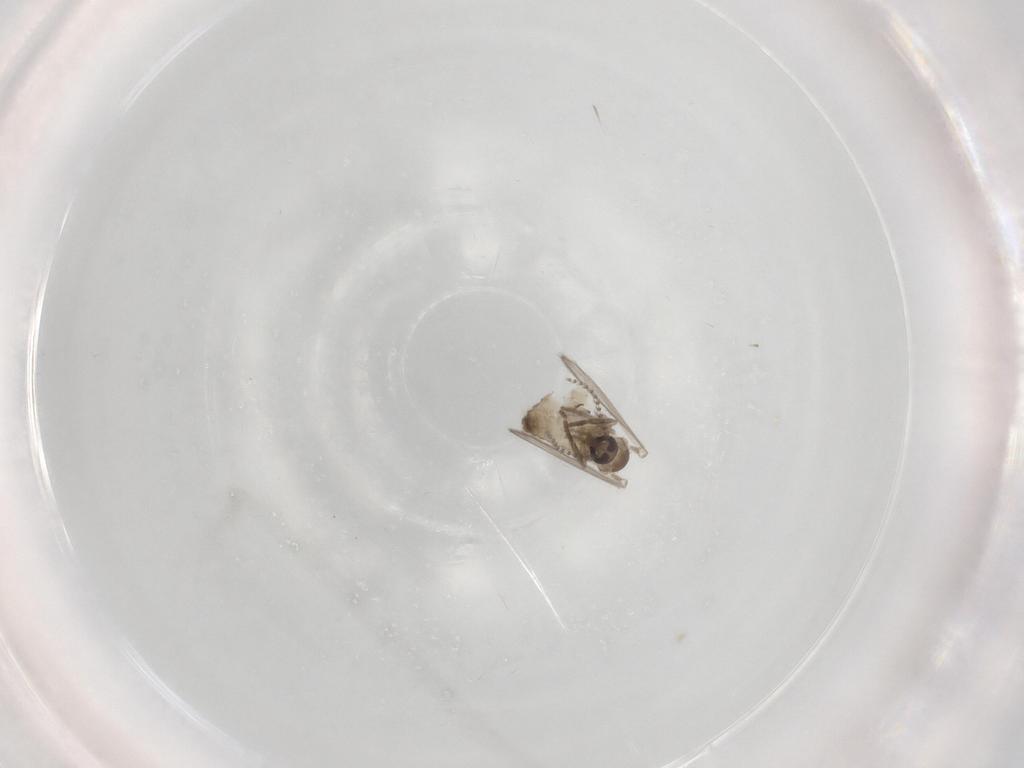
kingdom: Animalia
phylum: Arthropoda
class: Insecta
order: Diptera
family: Psychodidae
